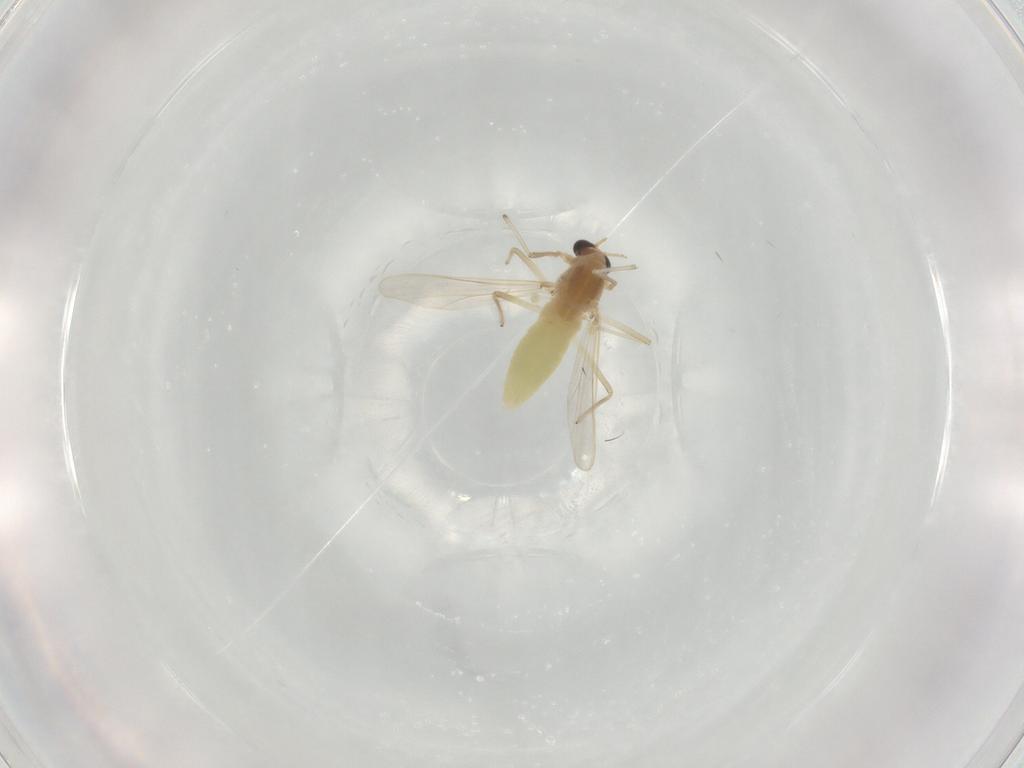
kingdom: Animalia
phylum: Arthropoda
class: Insecta
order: Diptera
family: Chironomidae
